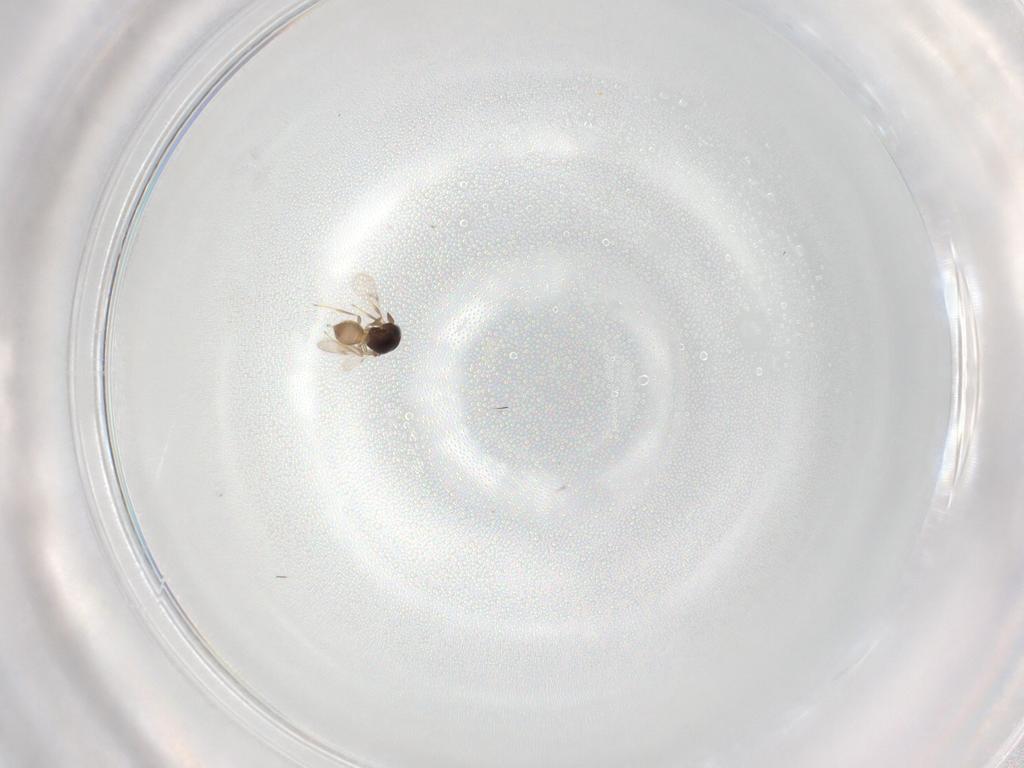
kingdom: Animalia
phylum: Arthropoda
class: Insecta
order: Hymenoptera
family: Scelionidae
